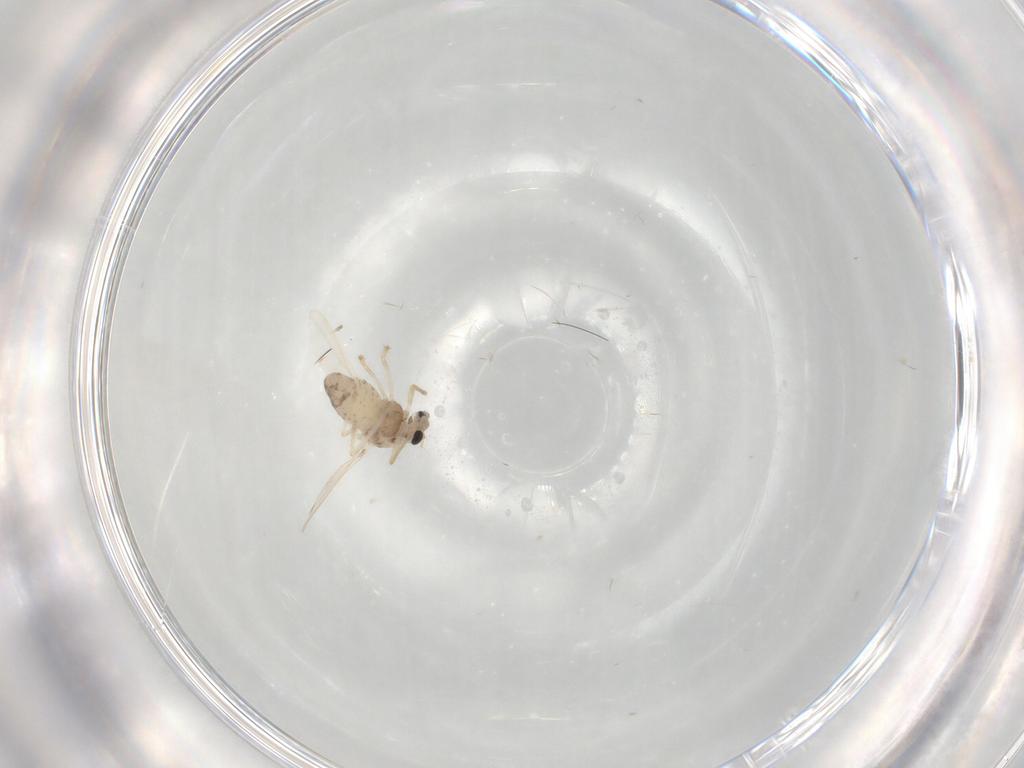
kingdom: Animalia
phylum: Arthropoda
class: Insecta
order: Diptera
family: Chironomidae
